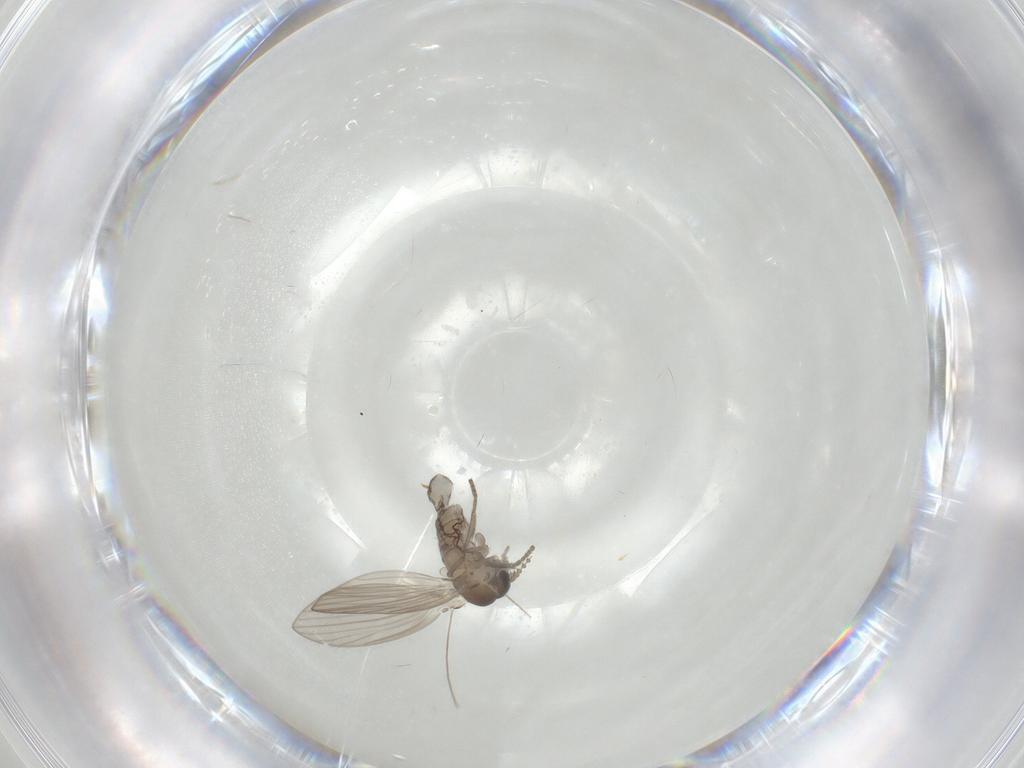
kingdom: Animalia
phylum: Arthropoda
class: Insecta
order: Diptera
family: Psychodidae
